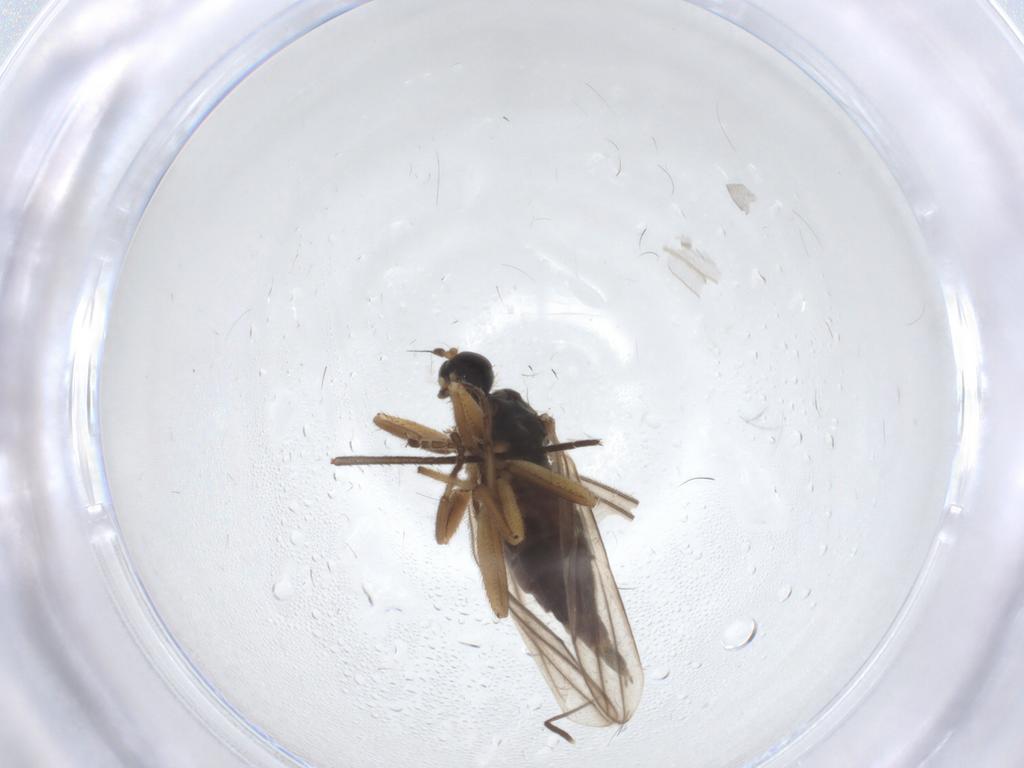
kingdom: Animalia
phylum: Arthropoda
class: Insecta
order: Diptera
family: Hybotidae
